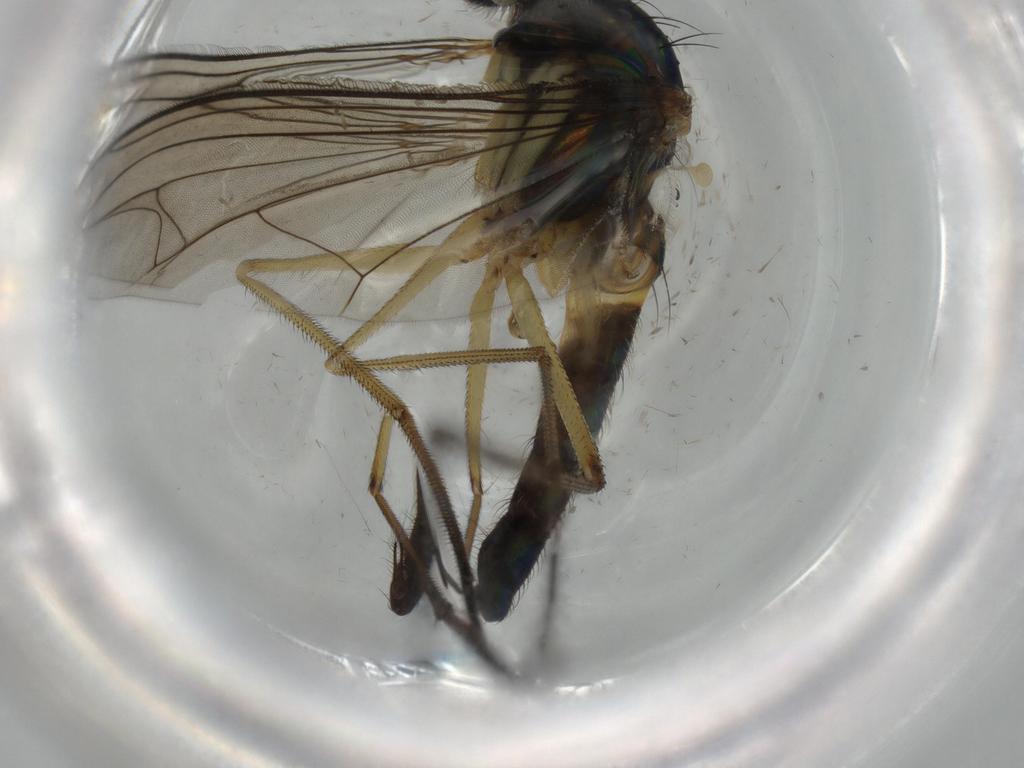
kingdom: Animalia
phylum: Arthropoda
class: Insecta
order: Diptera
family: Dolichopodidae
